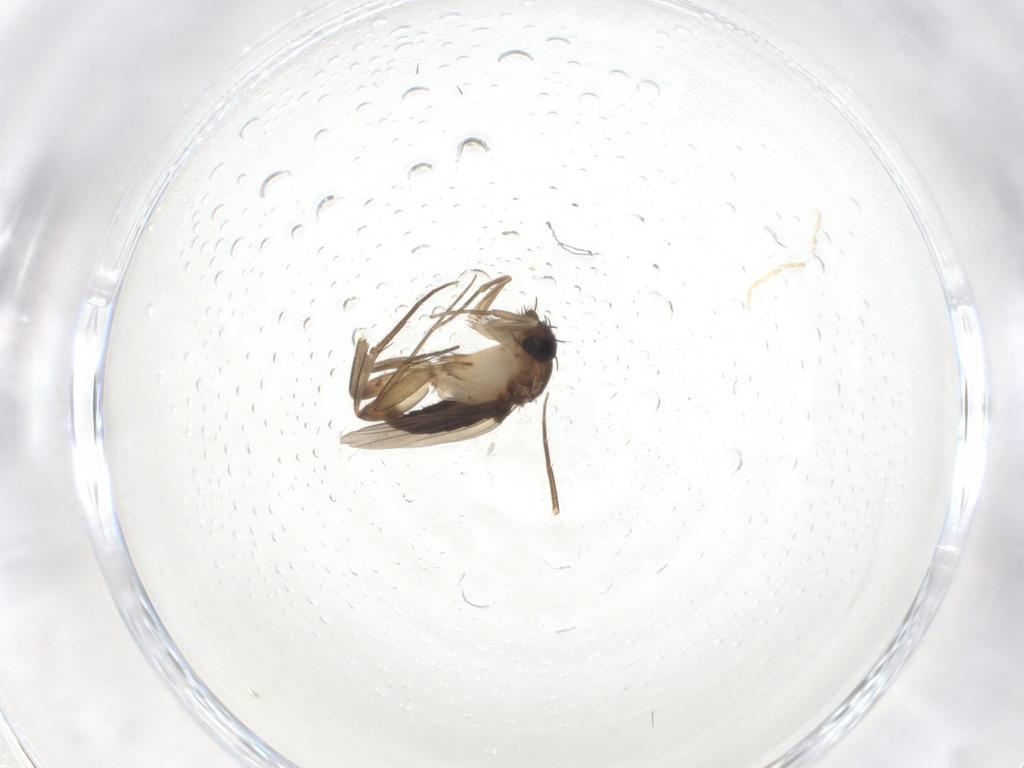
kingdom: Animalia
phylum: Arthropoda
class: Insecta
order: Diptera
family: Phoridae
